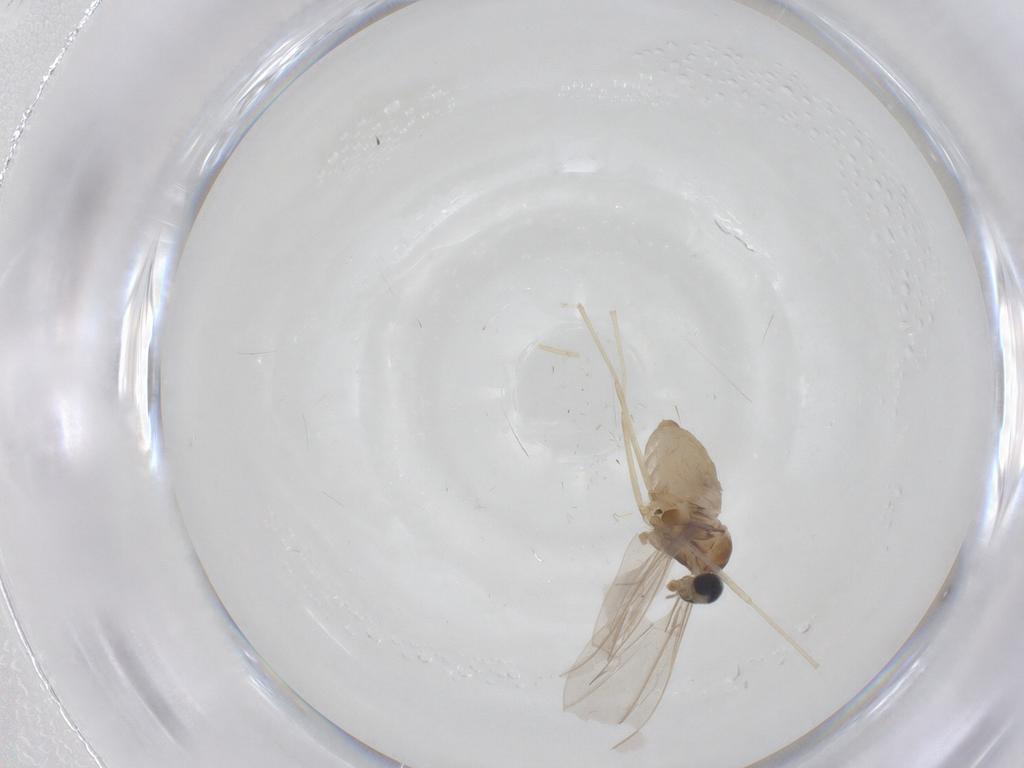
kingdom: Animalia
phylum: Arthropoda
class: Insecta
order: Diptera
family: Cecidomyiidae
